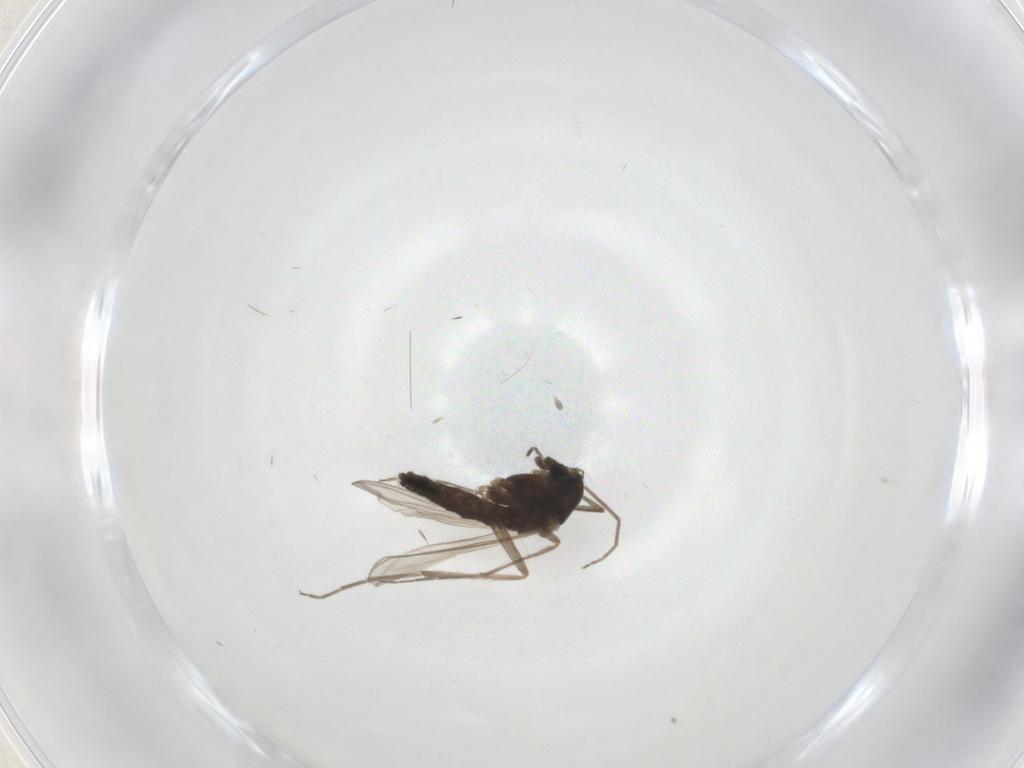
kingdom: Animalia
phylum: Arthropoda
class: Insecta
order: Diptera
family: Chironomidae
